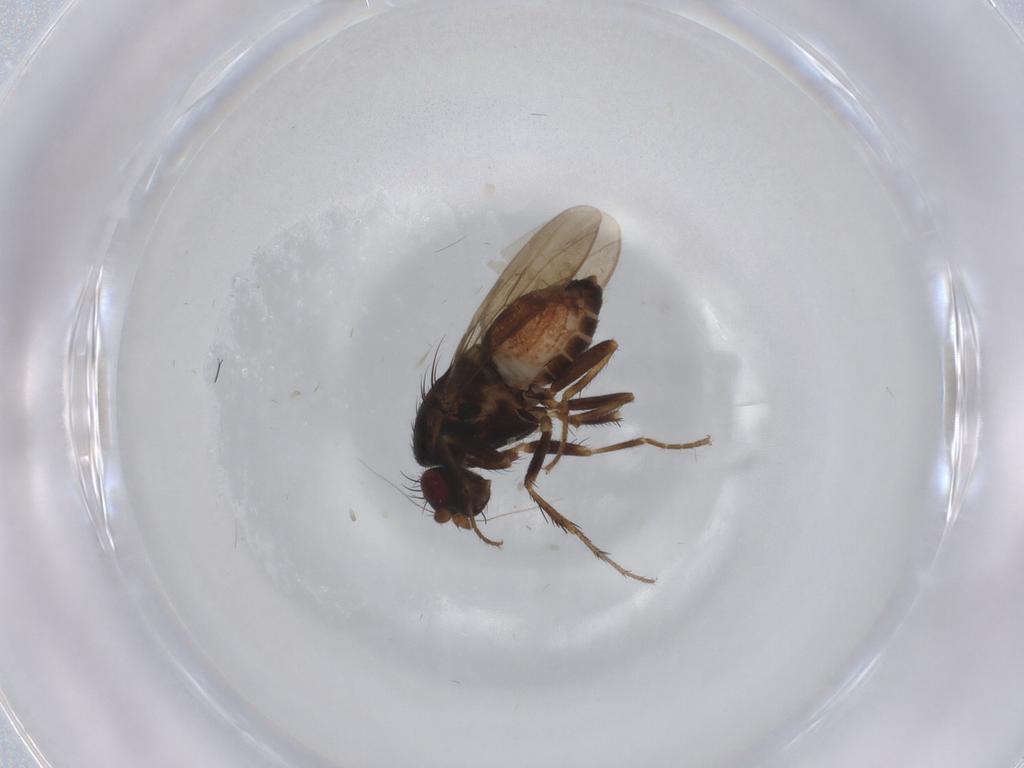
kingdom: Animalia
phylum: Arthropoda
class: Insecta
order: Diptera
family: Sphaeroceridae
